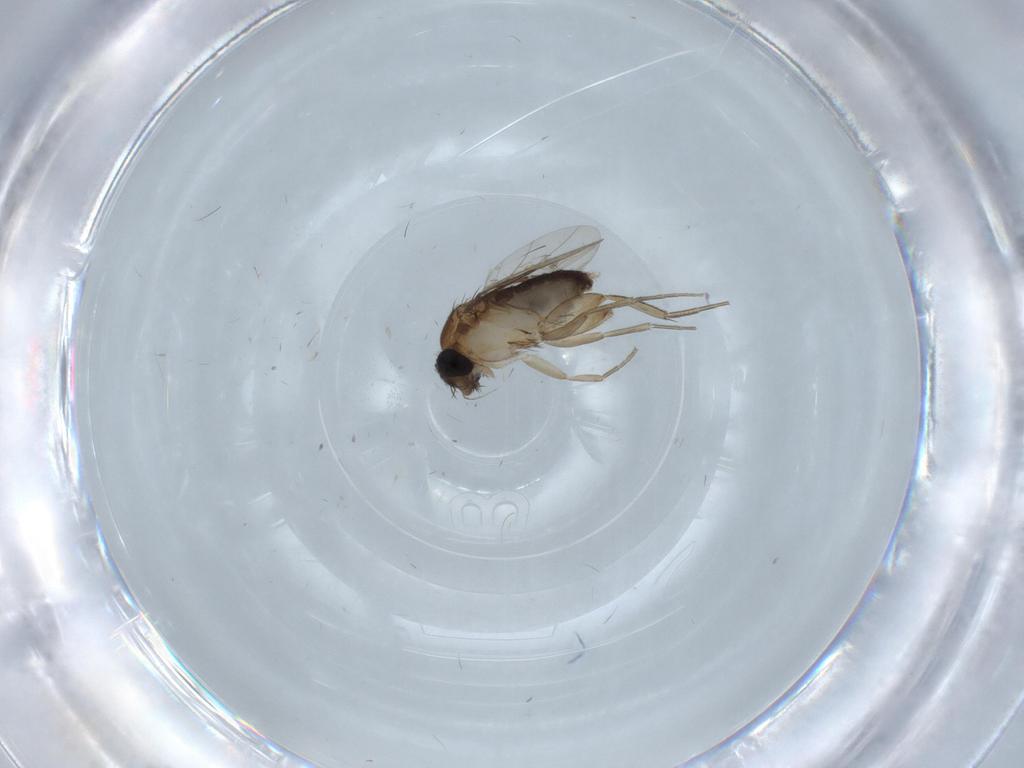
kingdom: Animalia
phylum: Arthropoda
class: Insecta
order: Diptera
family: Phoridae
